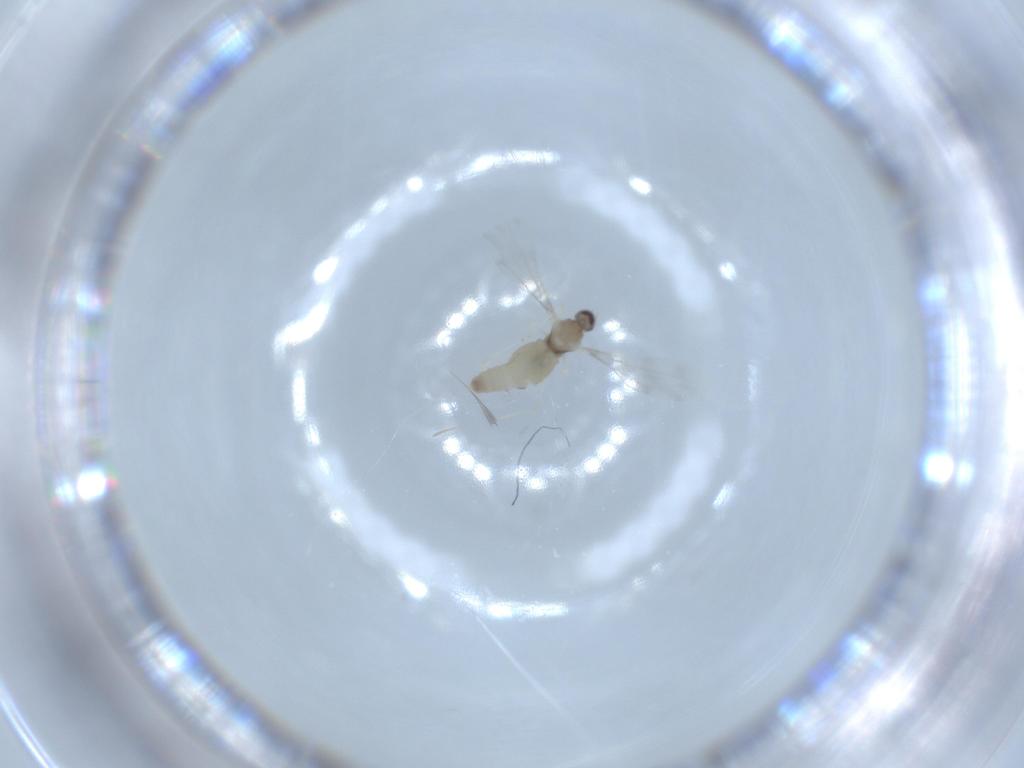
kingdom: Animalia
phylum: Arthropoda
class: Insecta
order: Diptera
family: Cecidomyiidae
